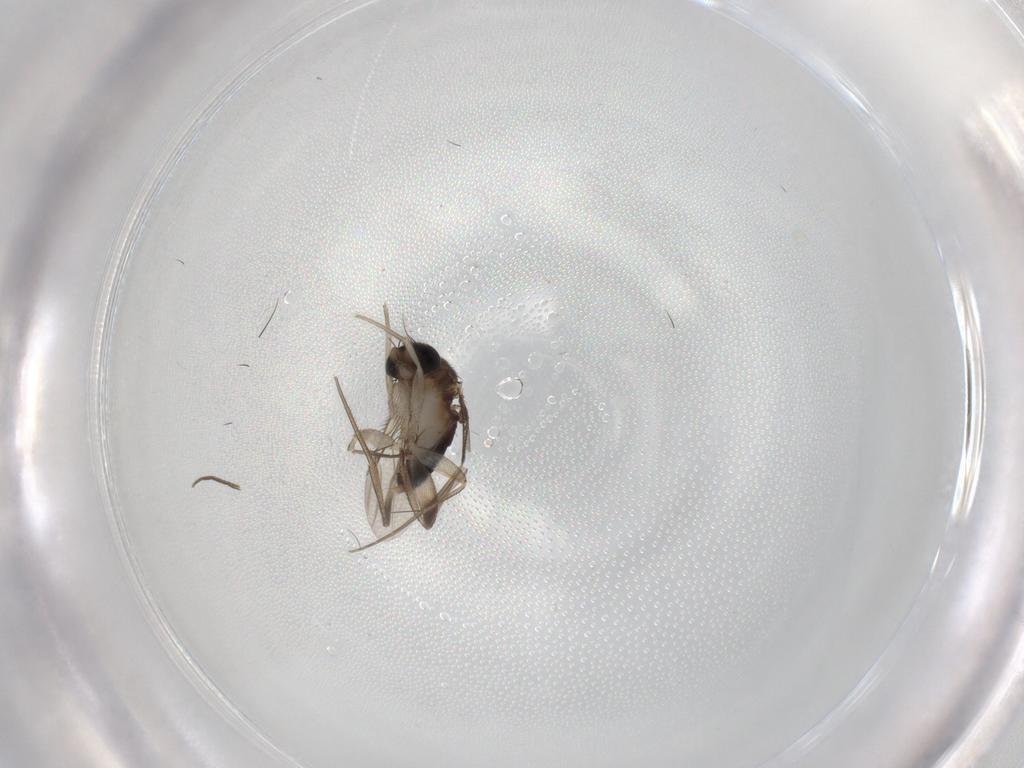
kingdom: Animalia
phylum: Arthropoda
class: Insecta
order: Diptera
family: Phoridae
